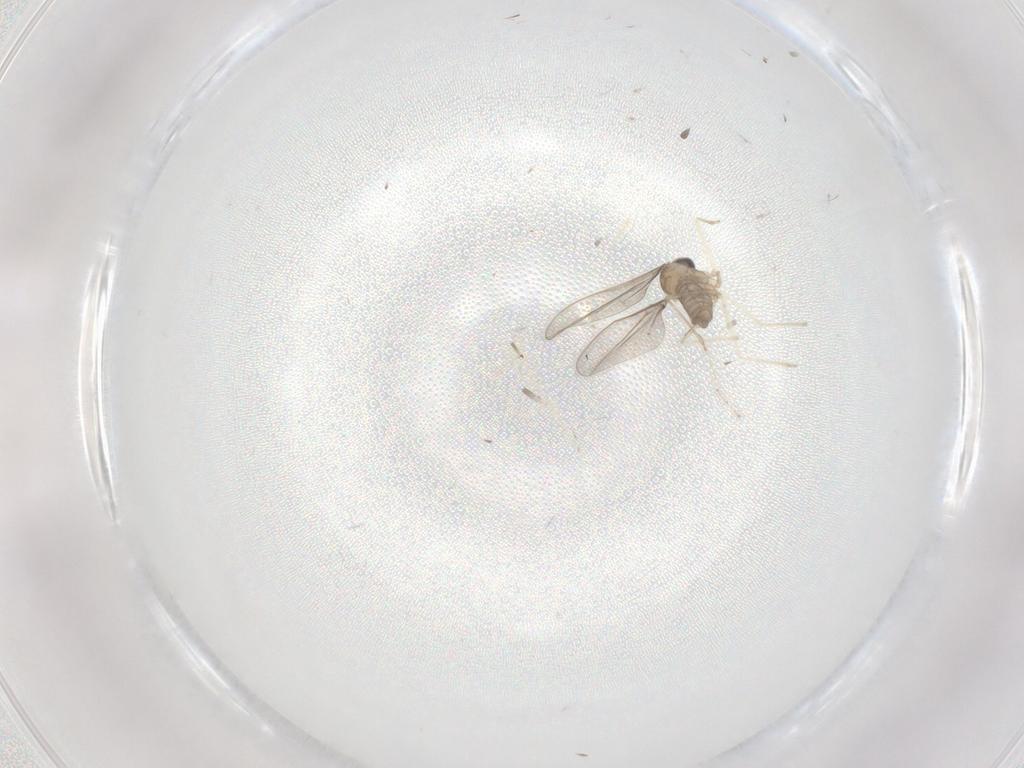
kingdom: Animalia
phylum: Arthropoda
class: Insecta
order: Diptera
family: Cecidomyiidae
